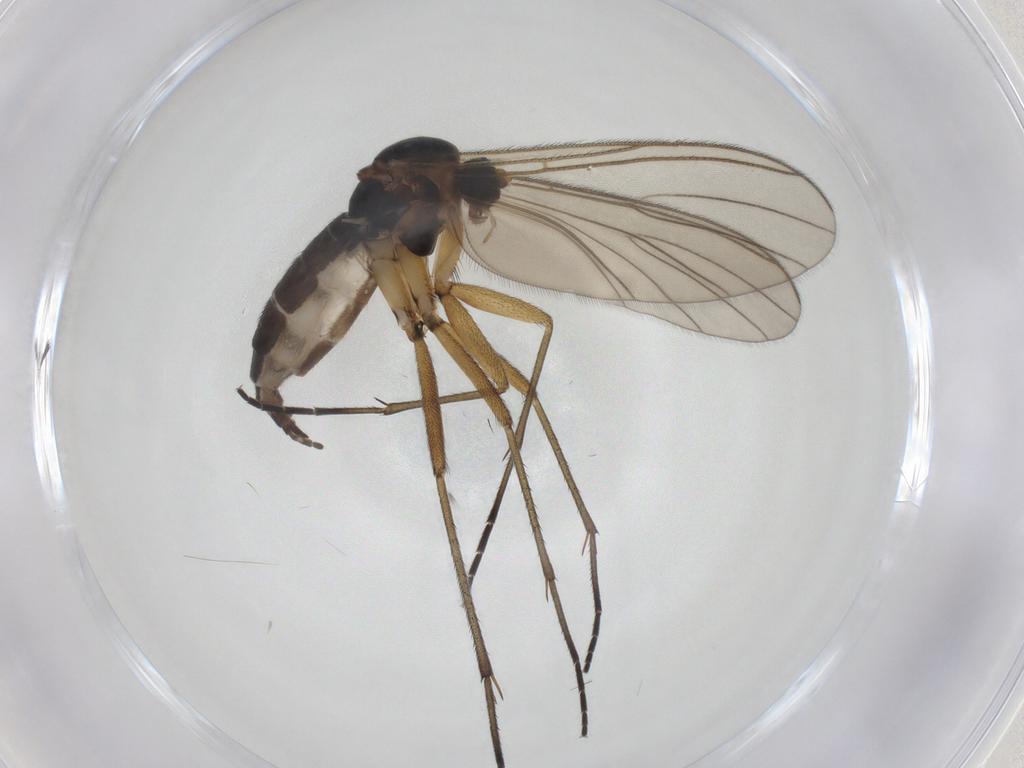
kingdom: Animalia
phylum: Arthropoda
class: Insecta
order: Diptera
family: Sciaridae
